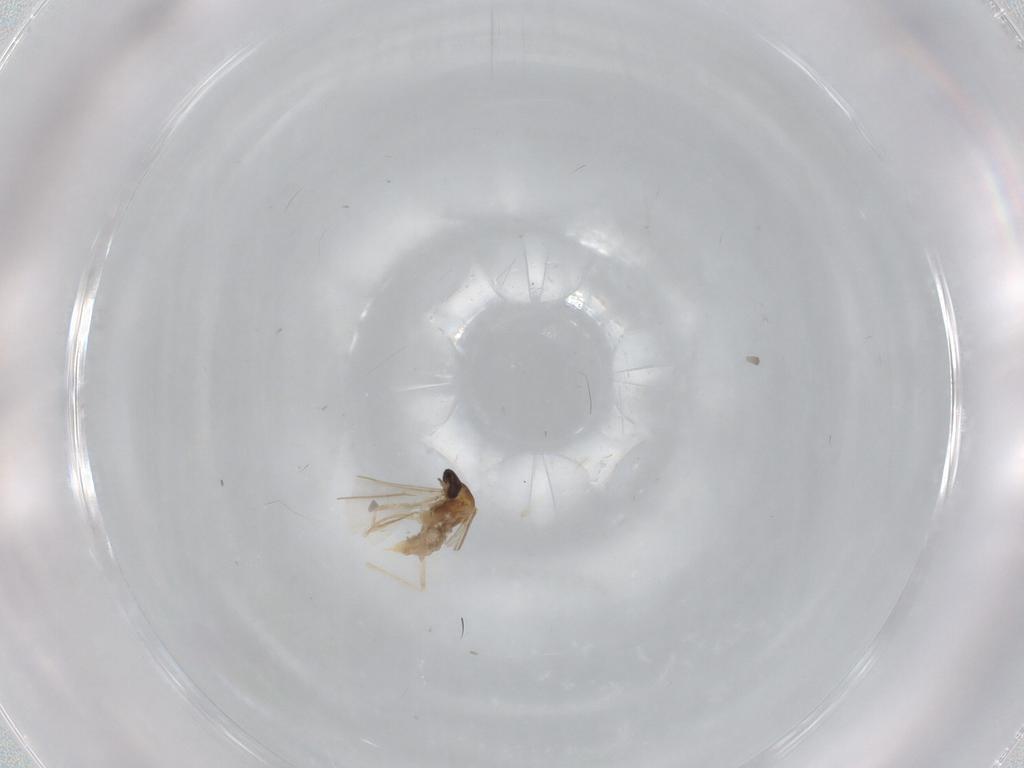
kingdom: Animalia
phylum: Arthropoda
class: Insecta
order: Diptera
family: Cecidomyiidae
